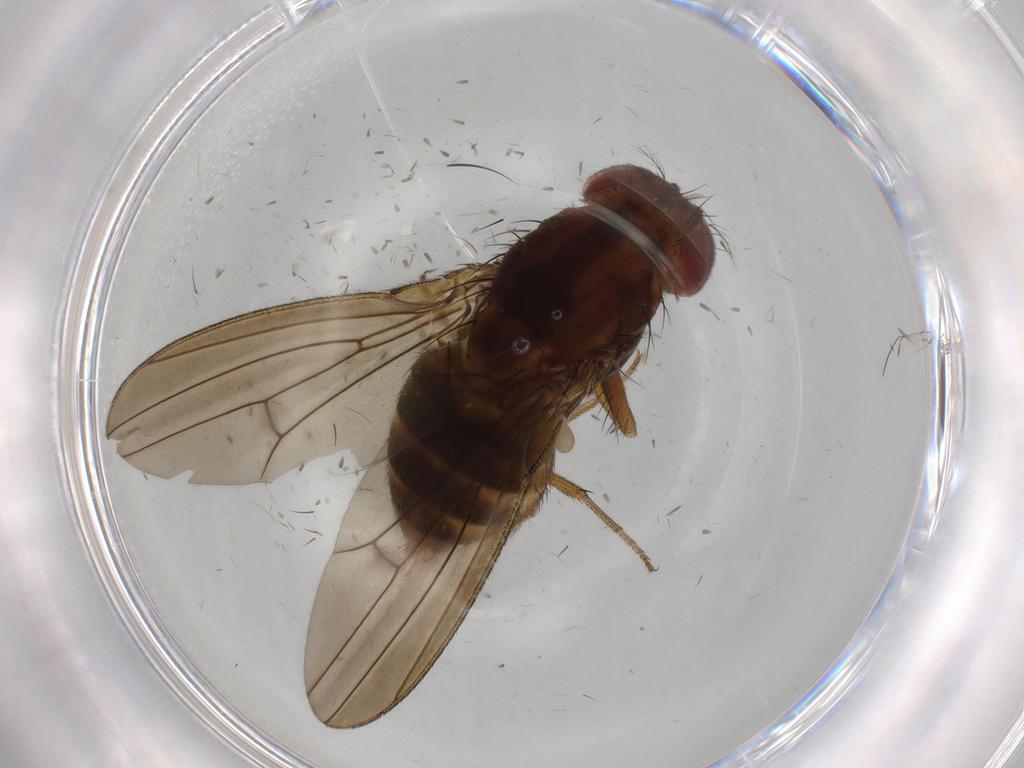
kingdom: Animalia
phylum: Arthropoda
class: Insecta
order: Diptera
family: Drosophilidae
